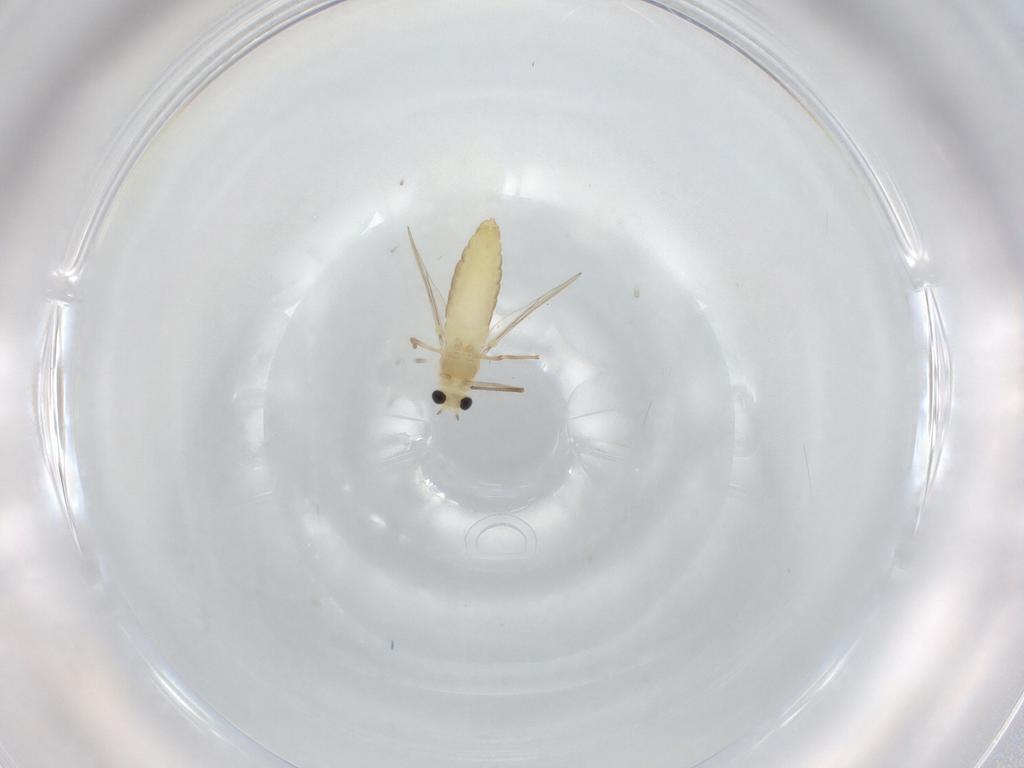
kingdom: Animalia
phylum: Arthropoda
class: Insecta
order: Diptera
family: Chironomidae
